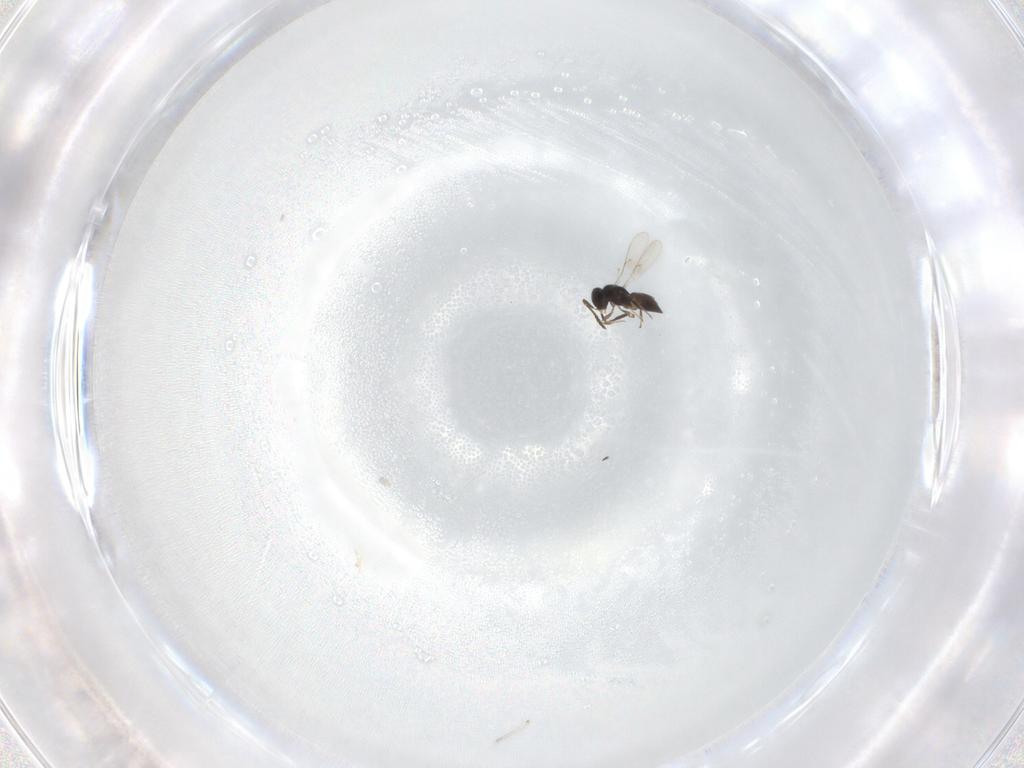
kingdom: Animalia
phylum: Arthropoda
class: Insecta
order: Hymenoptera
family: Scelionidae
